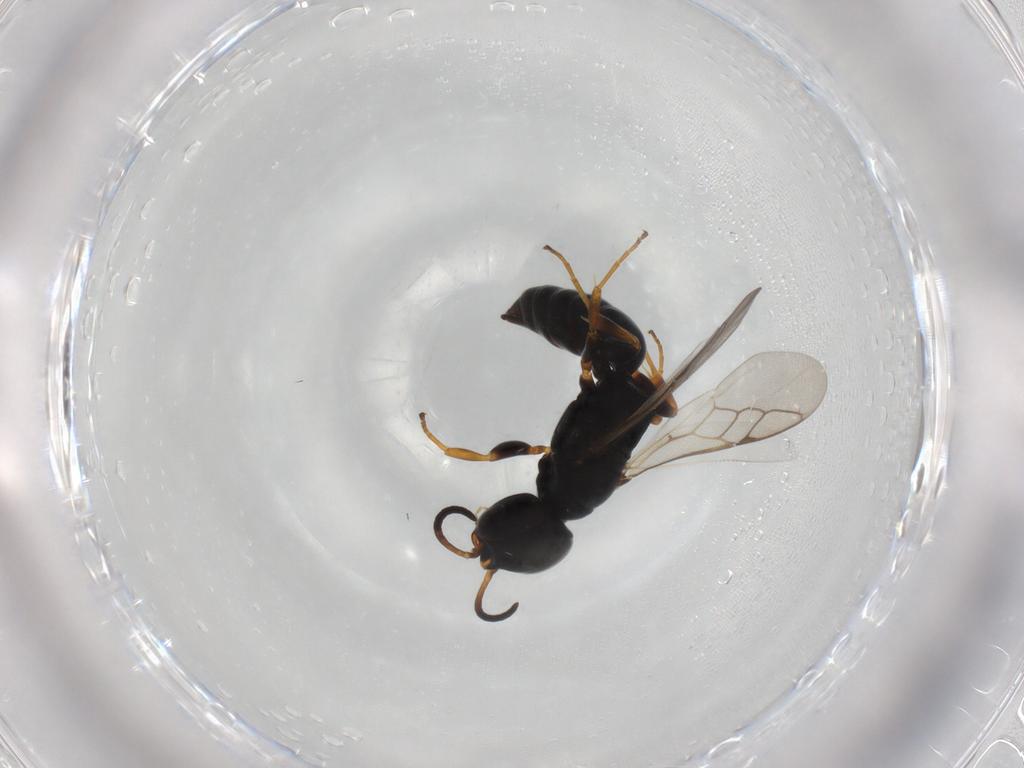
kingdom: Animalia
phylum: Arthropoda
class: Insecta
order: Hymenoptera
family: Crabronidae
